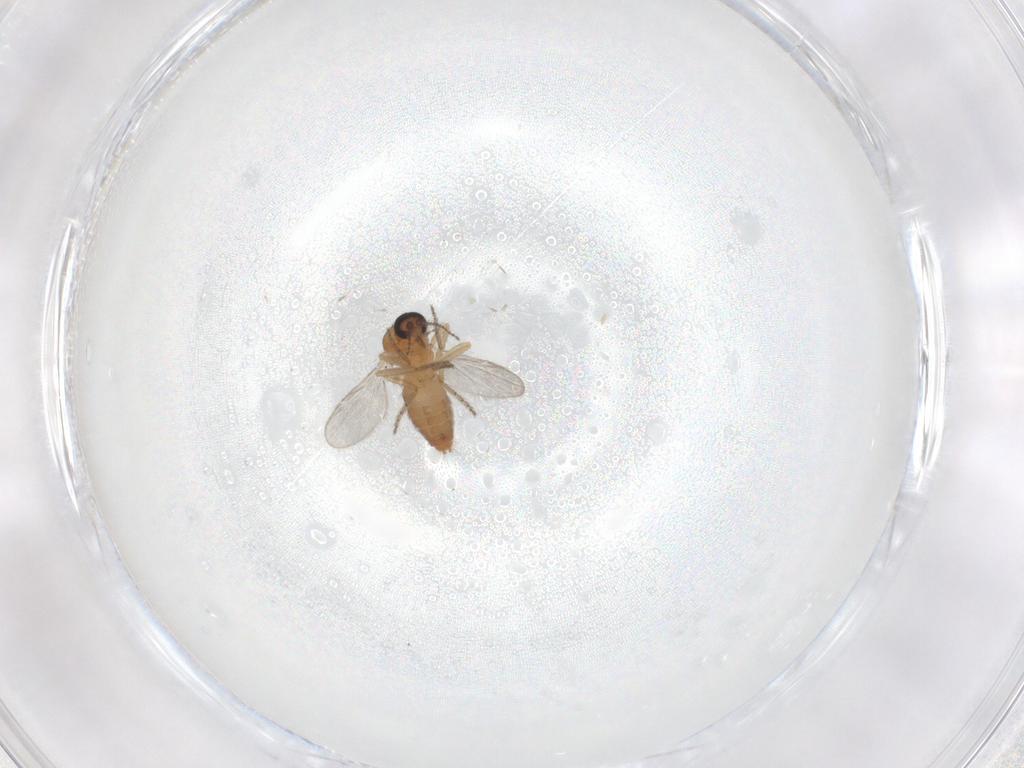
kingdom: Animalia
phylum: Arthropoda
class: Insecta
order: Diptera
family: Ceratopogonidae
